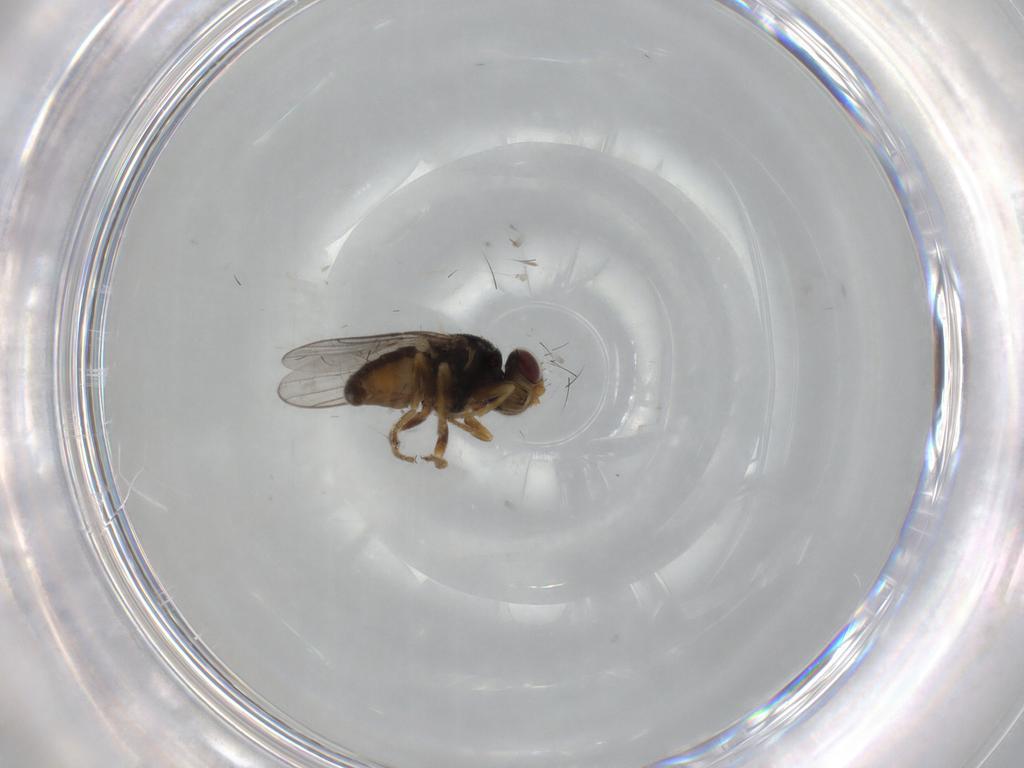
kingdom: Animalia
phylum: Arthropoda
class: Insecta
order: Diptera
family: Chloropidae
